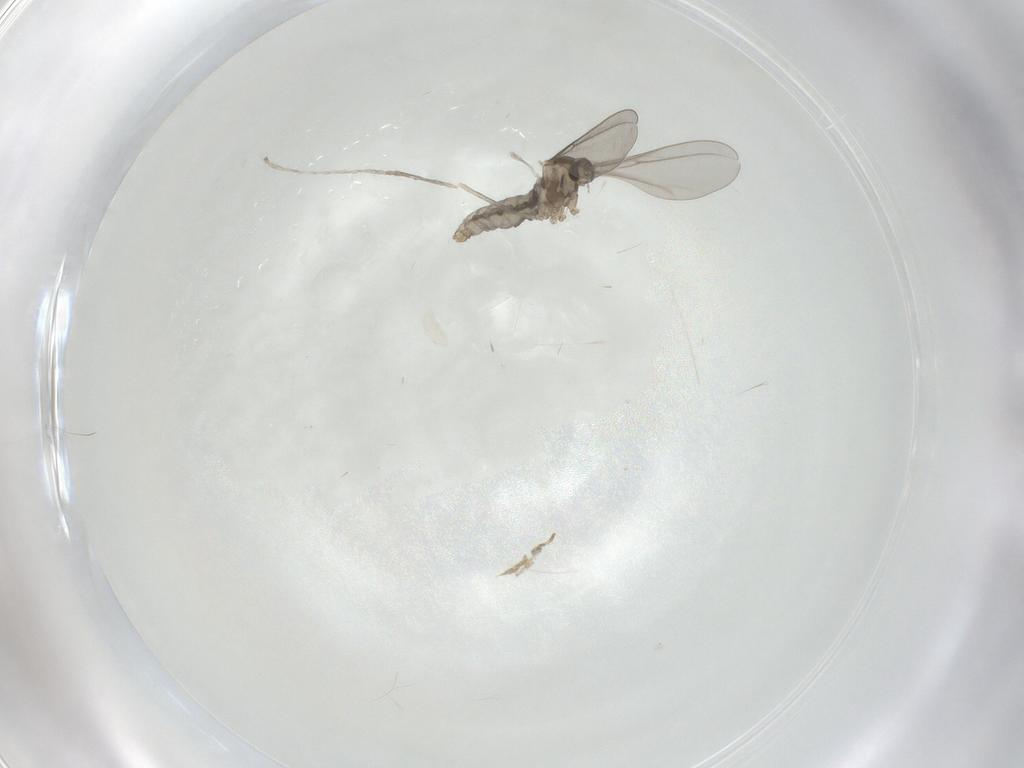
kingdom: Animalia
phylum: Arthropoda
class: Insecta
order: Diptera
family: Cecidomyiidae
